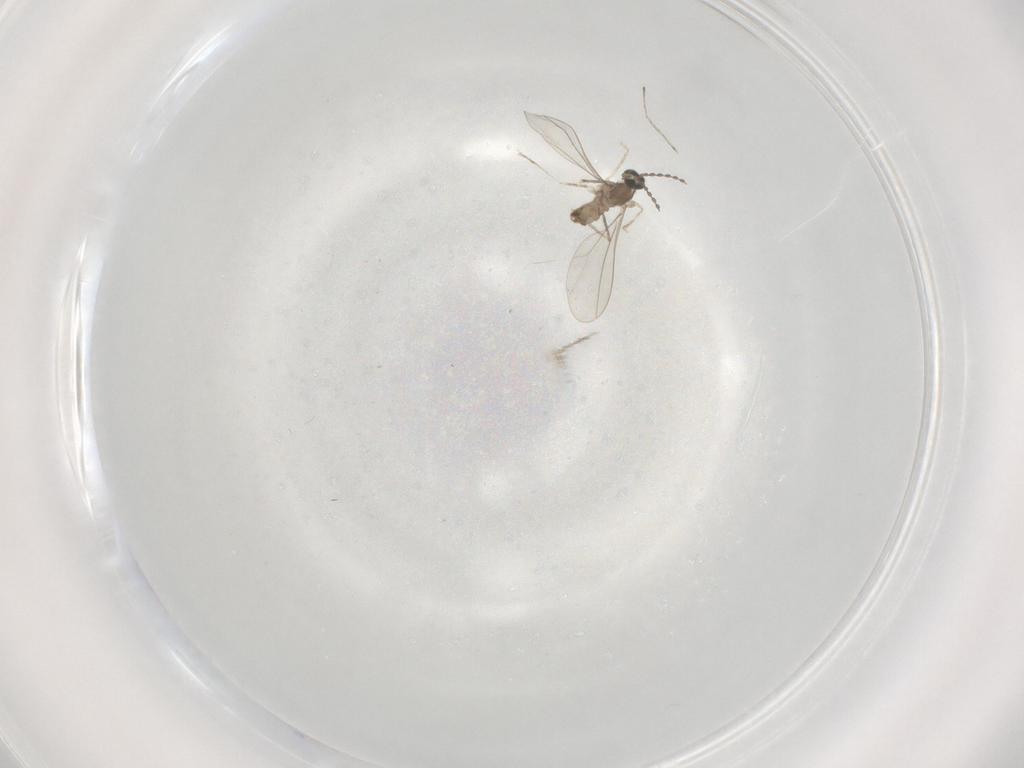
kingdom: Animalia
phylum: Arthropoda
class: Insecta
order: Diptera
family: Cecidomyiidae
